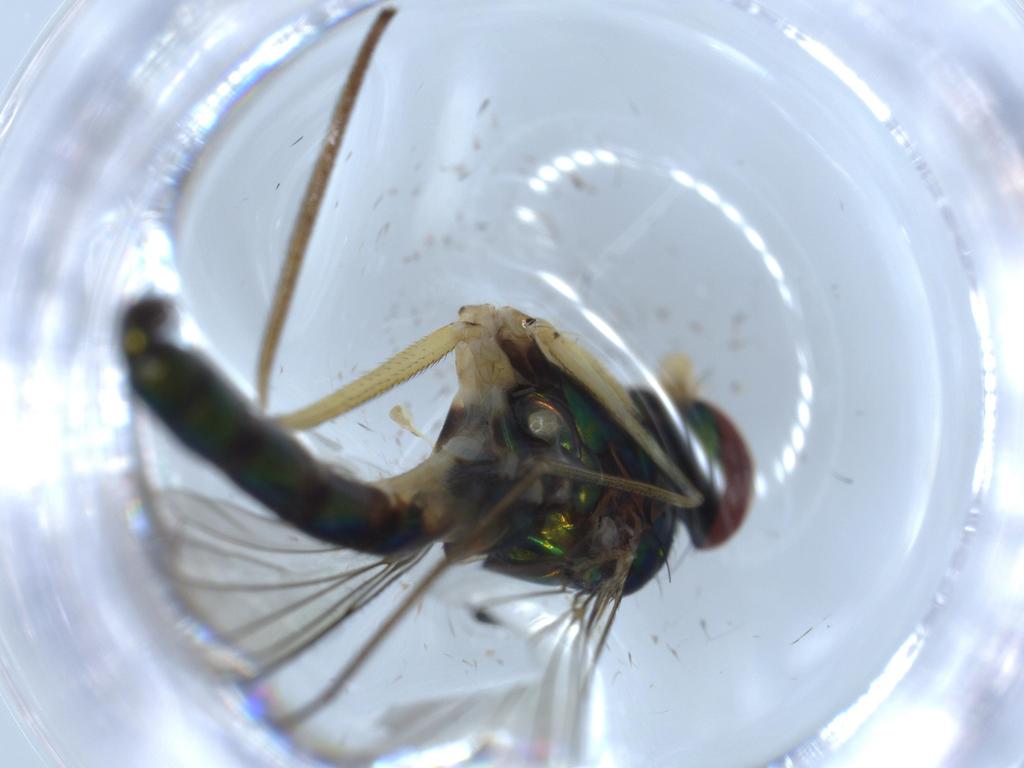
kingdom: Animalia
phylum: Arthropoda
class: Insecta
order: Diptera
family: Dolichopodidae
